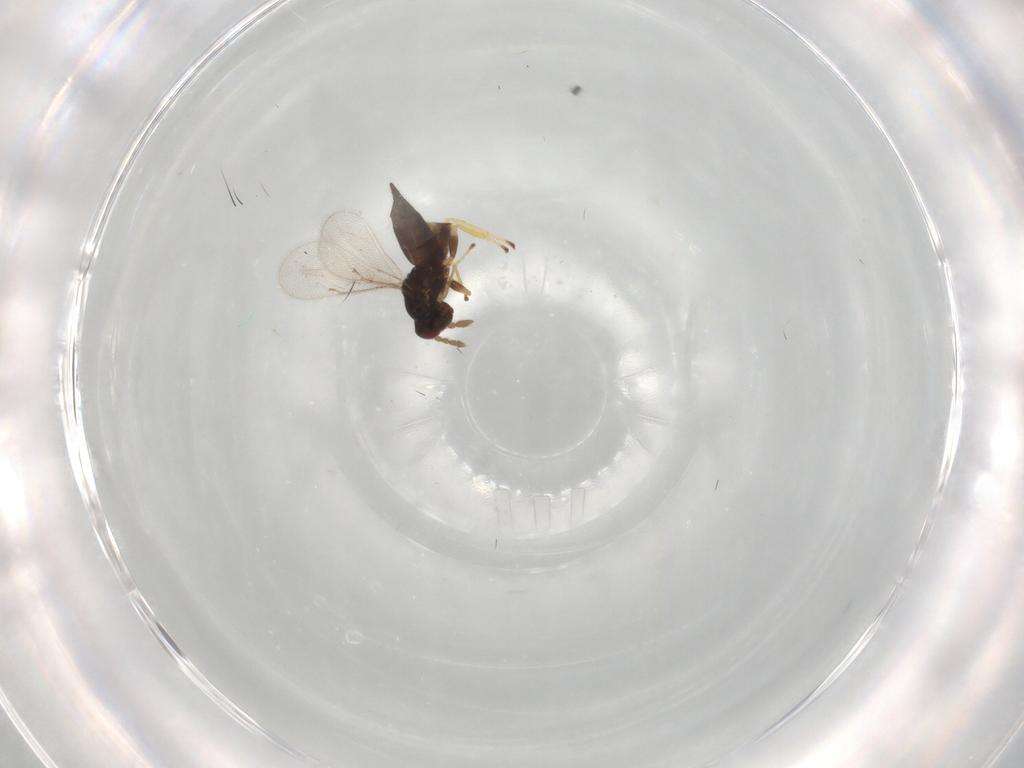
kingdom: Animalia
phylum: Arthropoda
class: Insecta
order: Hymenoptera
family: Eulophidae
